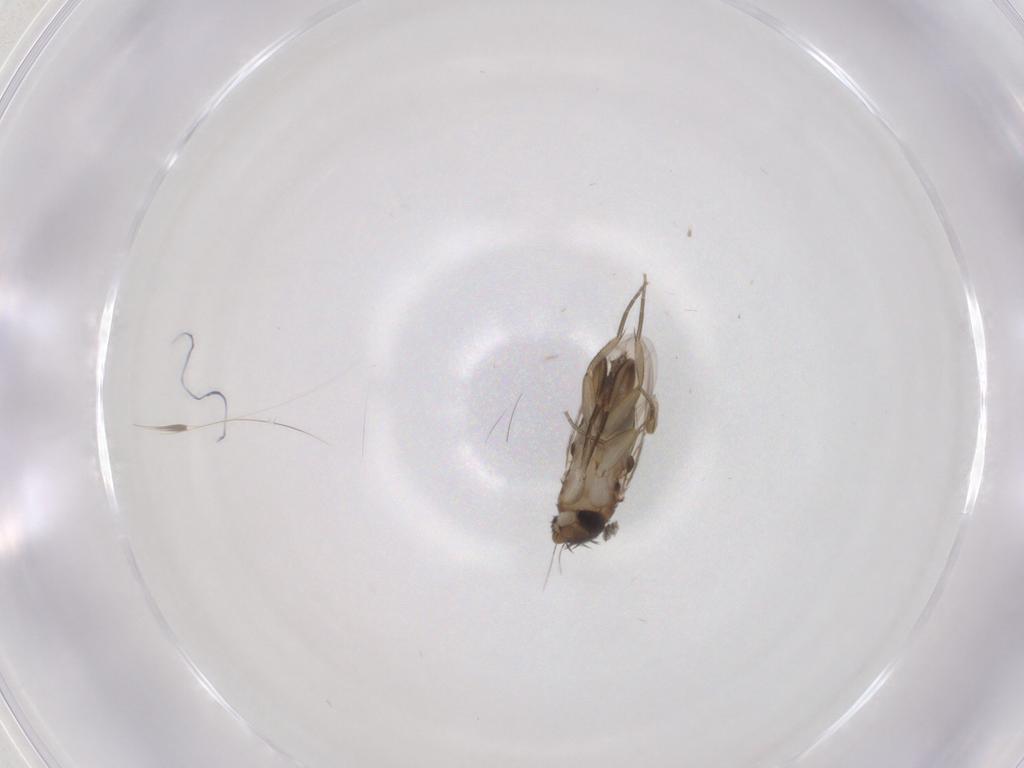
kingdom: Animalia
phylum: Arthropoda
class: Insecta
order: Diptera
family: Phoridae
